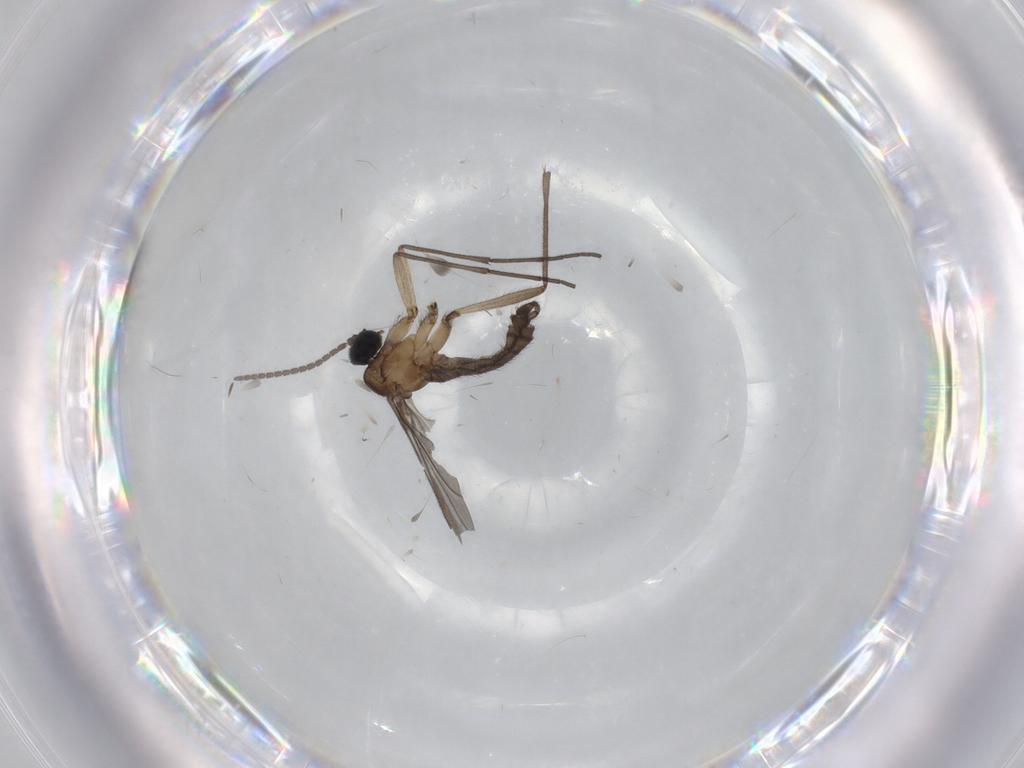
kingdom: Animalia
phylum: Arthropoda
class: Insecta
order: Diptera
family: Sciaridae
